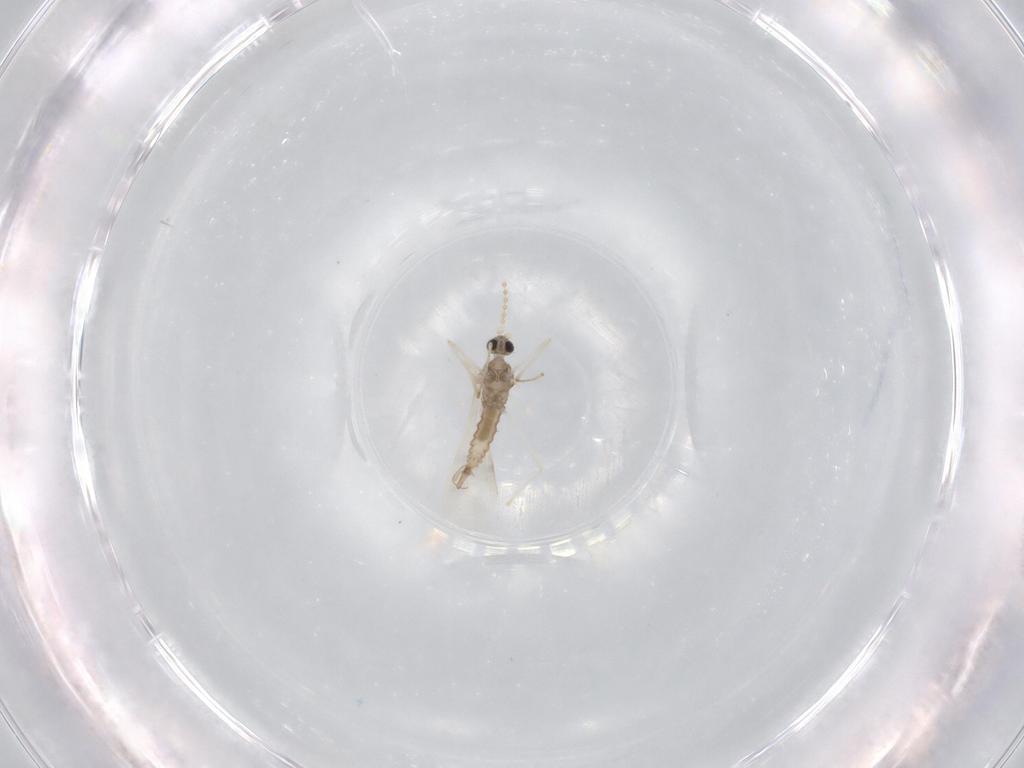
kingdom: Animalia
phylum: Arthropoda
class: Insecta
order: Diptera
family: Cecidomyiidae
